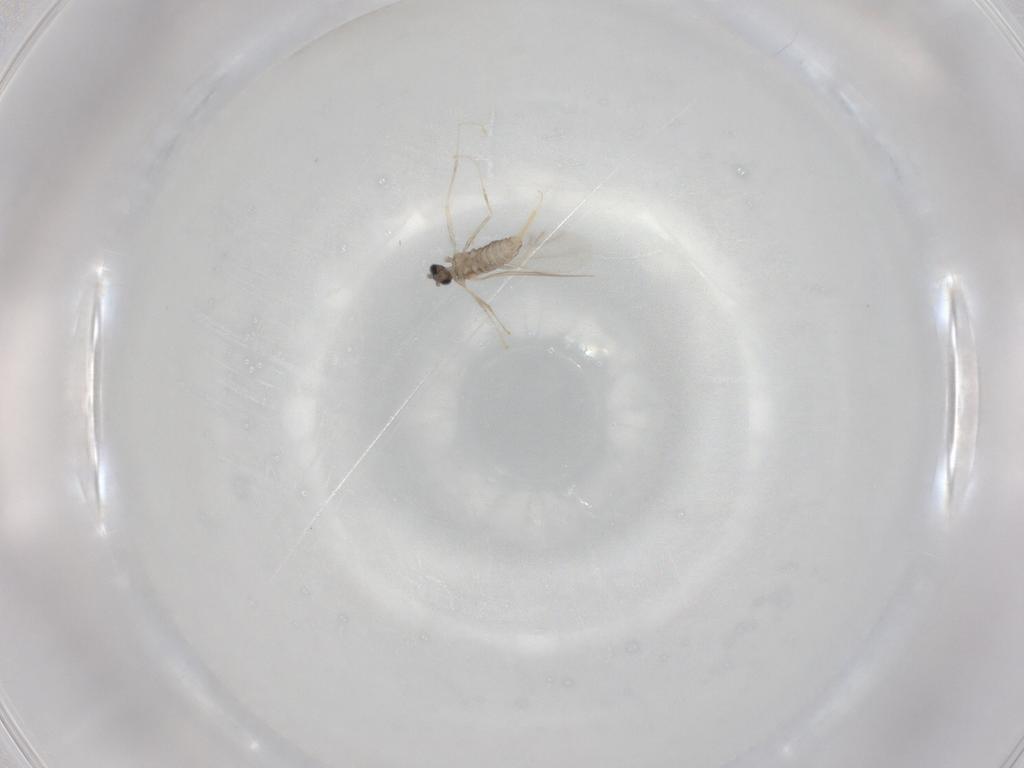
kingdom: Animalia
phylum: Arthropoda
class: Insecta
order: Diptera
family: Cecidomyiidae
